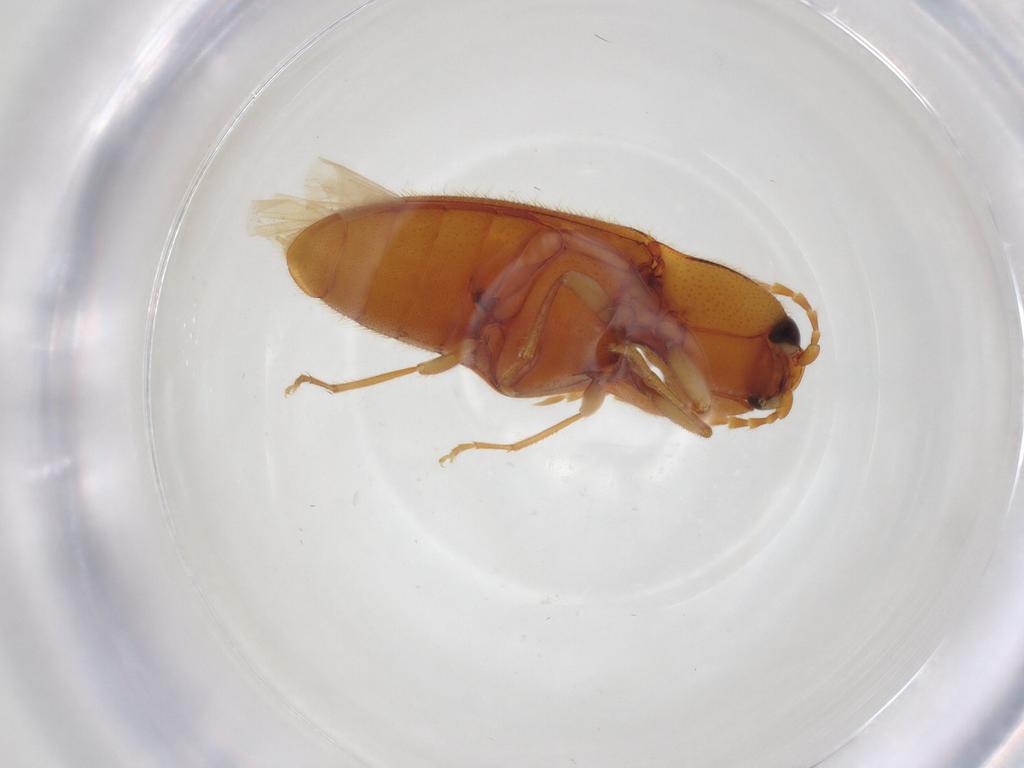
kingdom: Animalia
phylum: Arthropoda
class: Insecta
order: Coleoptera
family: Elateridae
